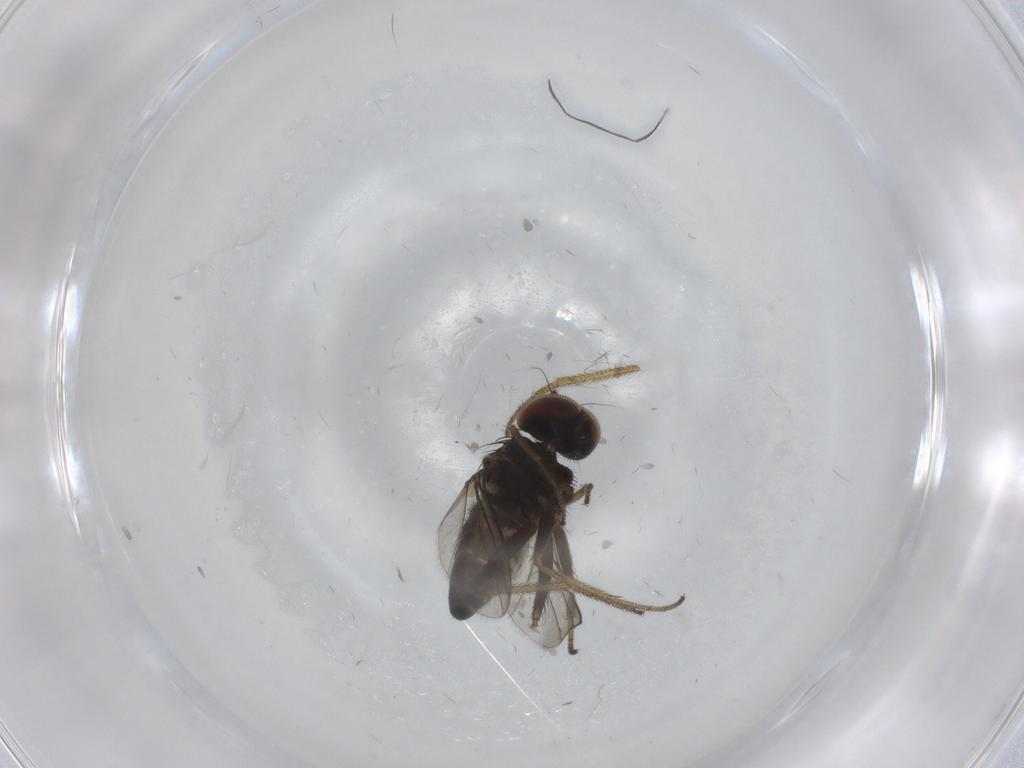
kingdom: Animalia
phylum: Arthropoda
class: Insecta
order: Diptera
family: Dolichopodidae
